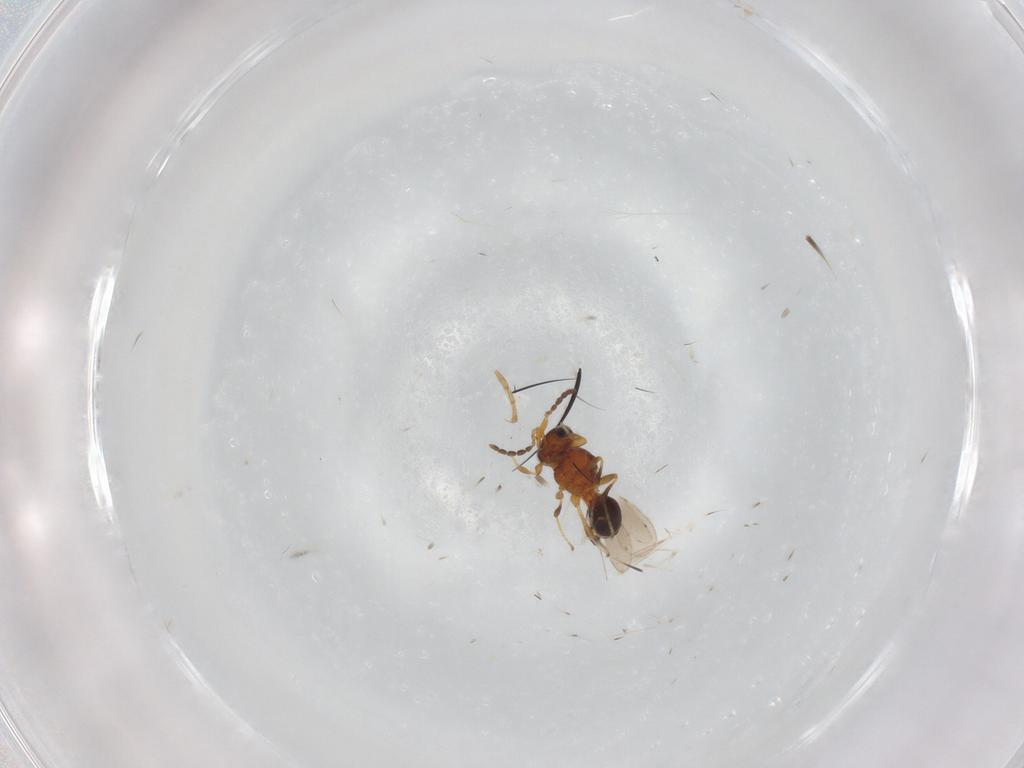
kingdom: Animalia
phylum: Arthropoda
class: Insecta
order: Hymenoptera
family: Platygastridae
